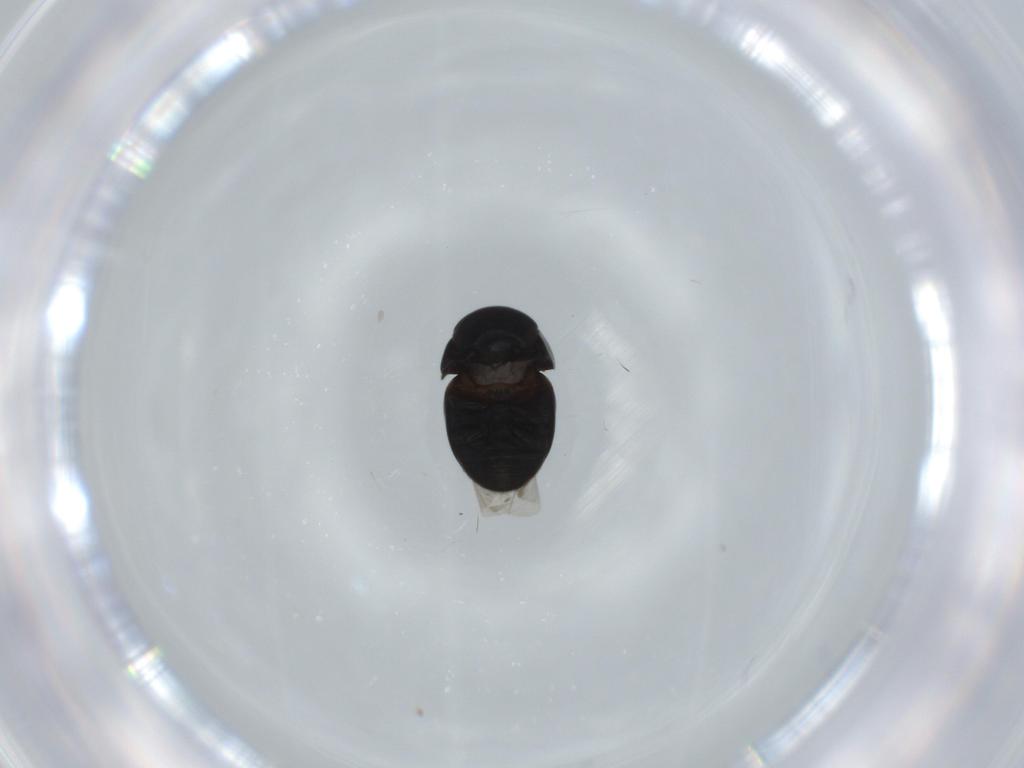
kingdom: Animalia
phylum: Arthropoda
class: Insecta
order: Coleoptera
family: Cybocephalidae
